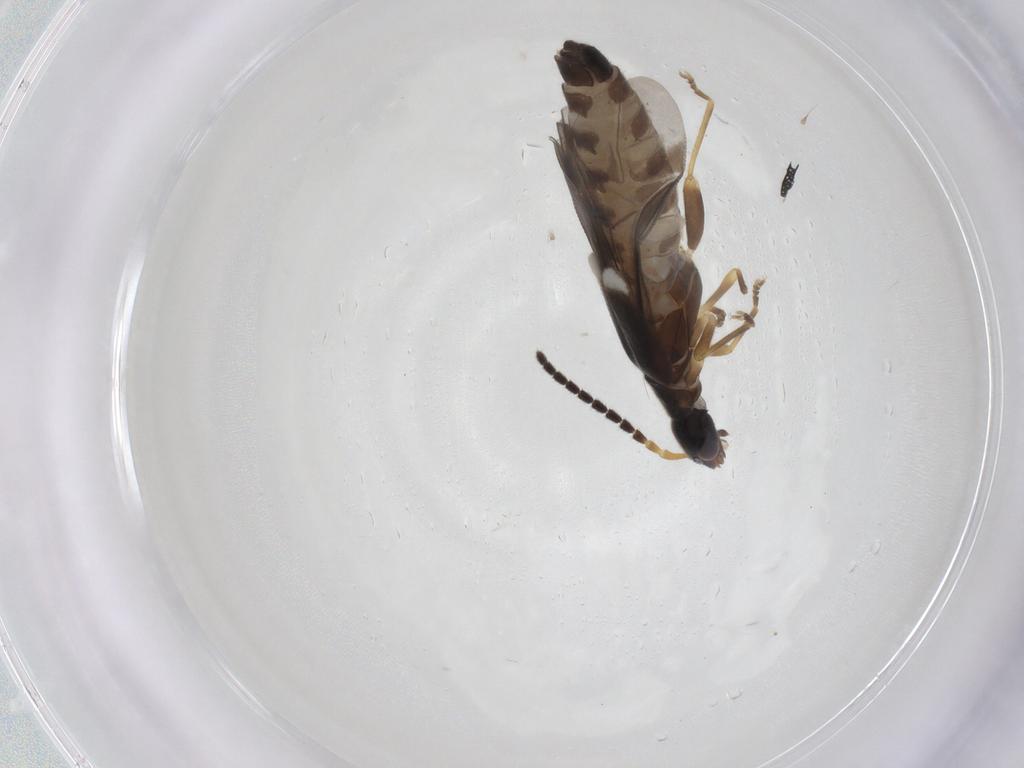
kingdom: Animalia
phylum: Arthropoda
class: Insecta
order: Coleoptera
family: Cantharidae
